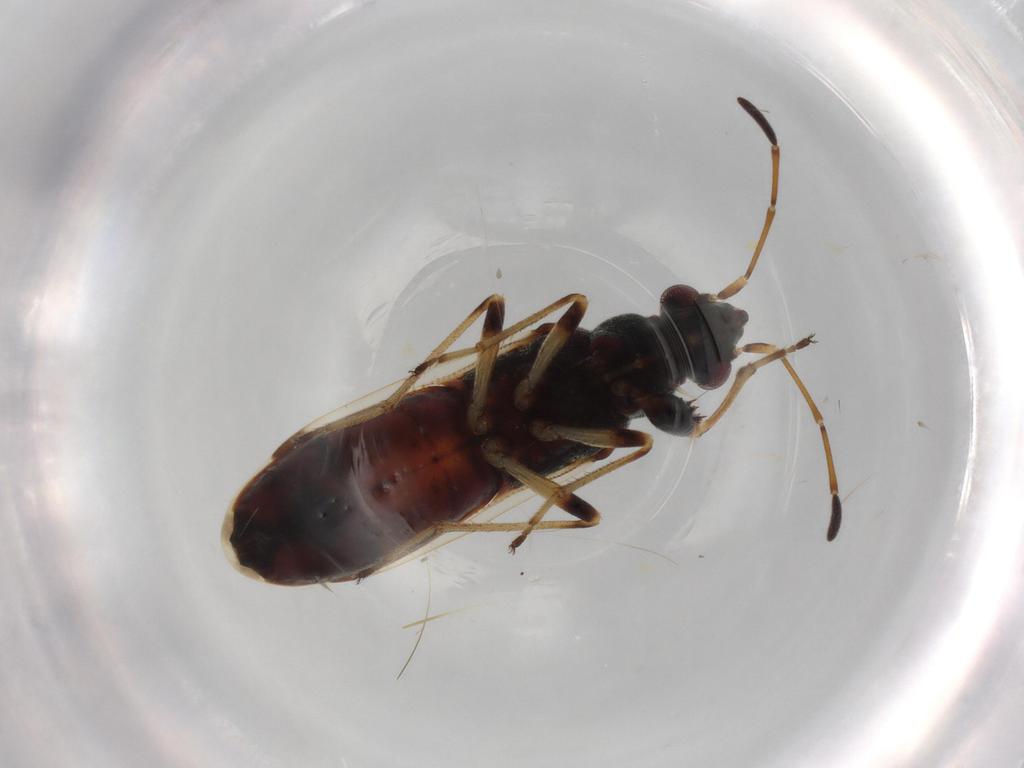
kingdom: Animalia
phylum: Arthropoda
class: Insecta
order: Hemiptera
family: Rhyparochromidae
